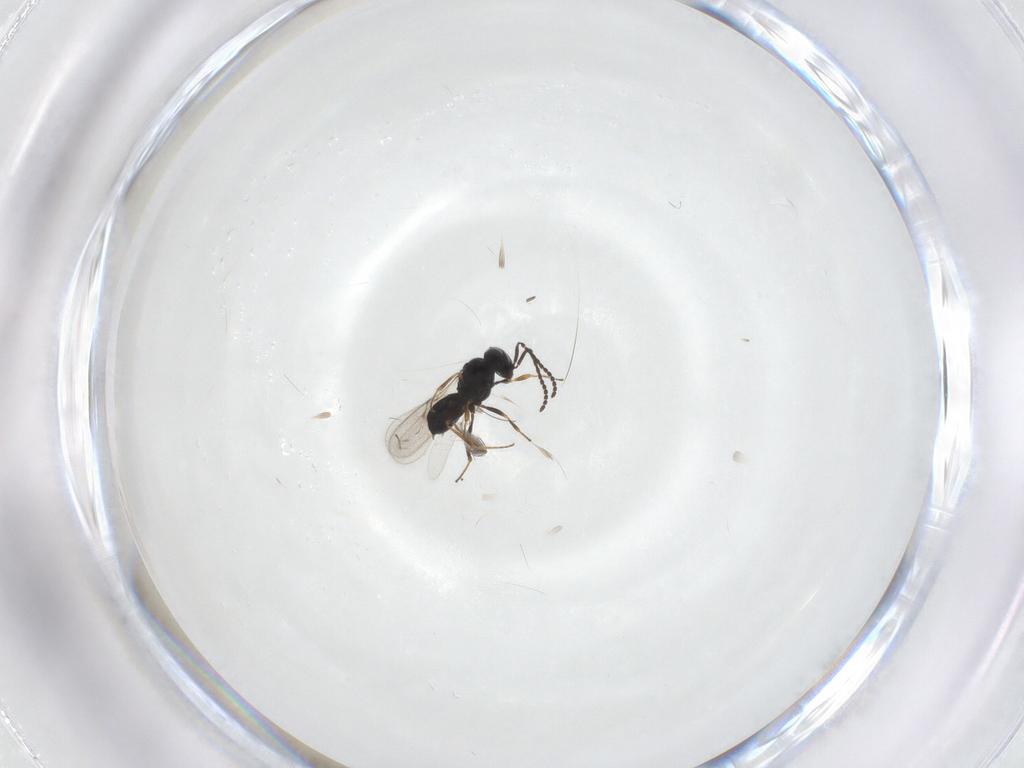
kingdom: Animalia
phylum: Arthropoda
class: Insecta
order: Hymenoptera
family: Scelionidae
